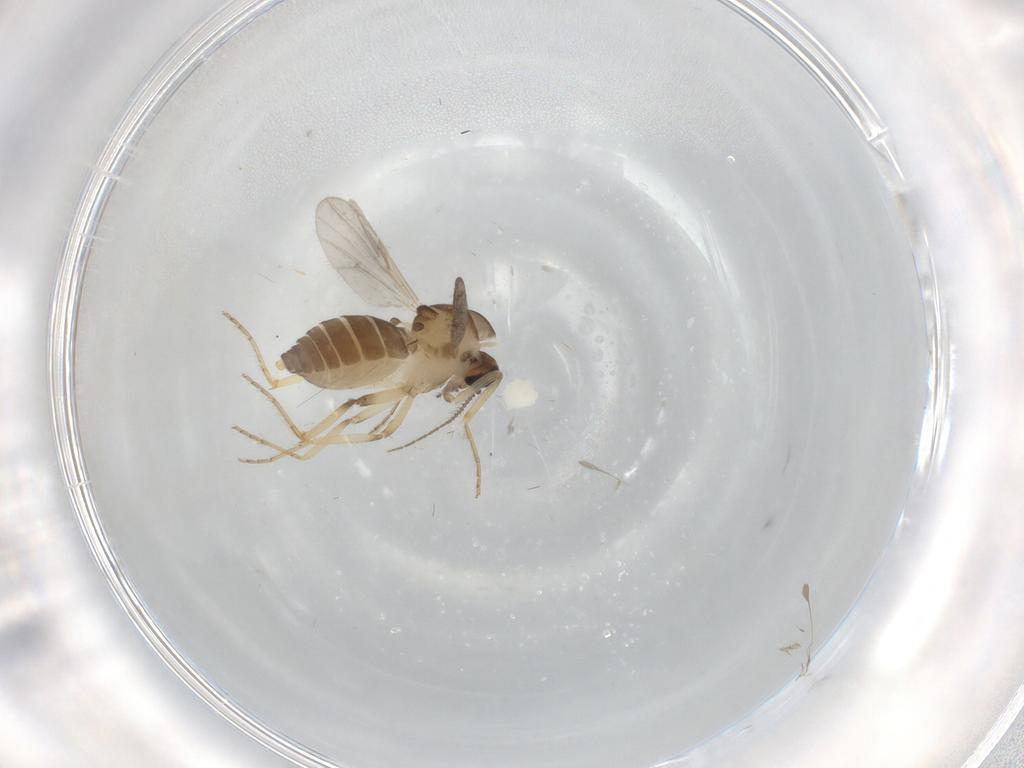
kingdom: Animalia
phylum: Arthropoda
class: Insecta
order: Diptera
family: Ceratopogonidae
